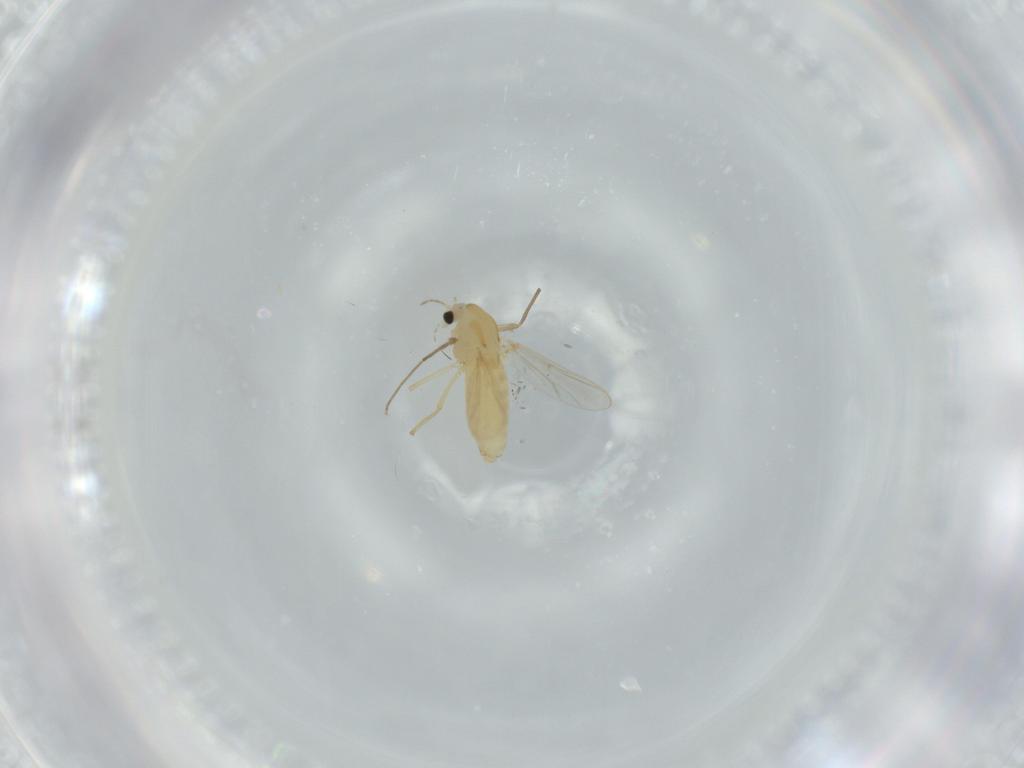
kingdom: Animalia
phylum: Arthropoda
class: Insecta
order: Diptera
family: Chironomidae
